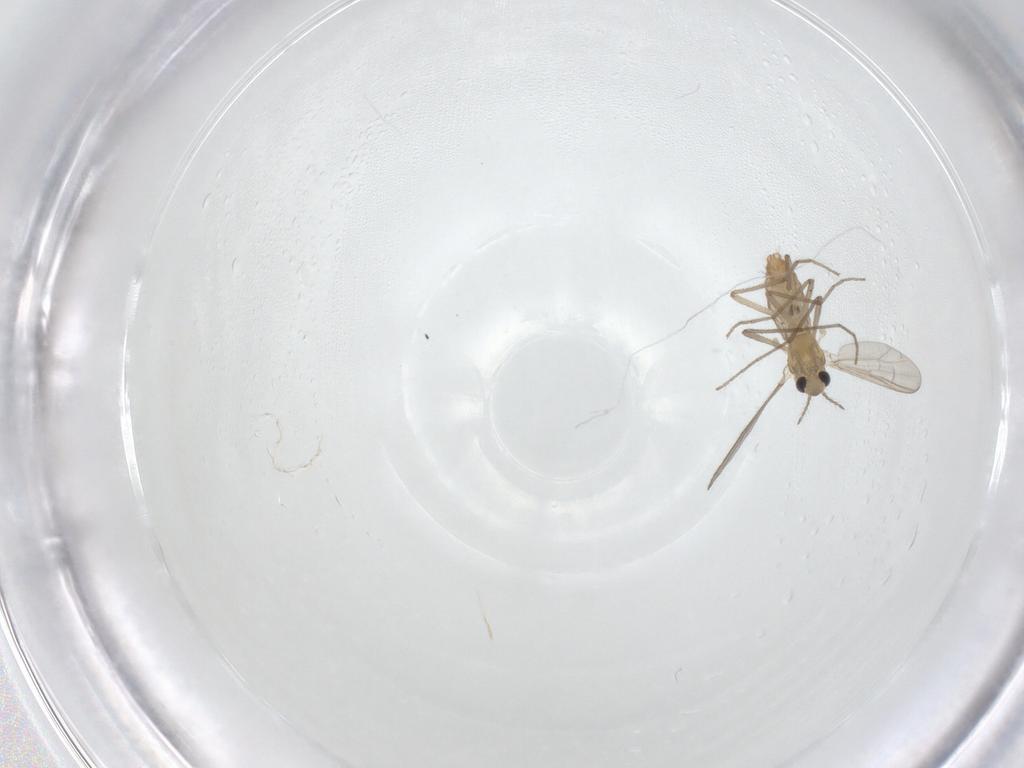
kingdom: Animalia
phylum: Arthropoda
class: Insecta
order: Diptera
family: Chironomidae
